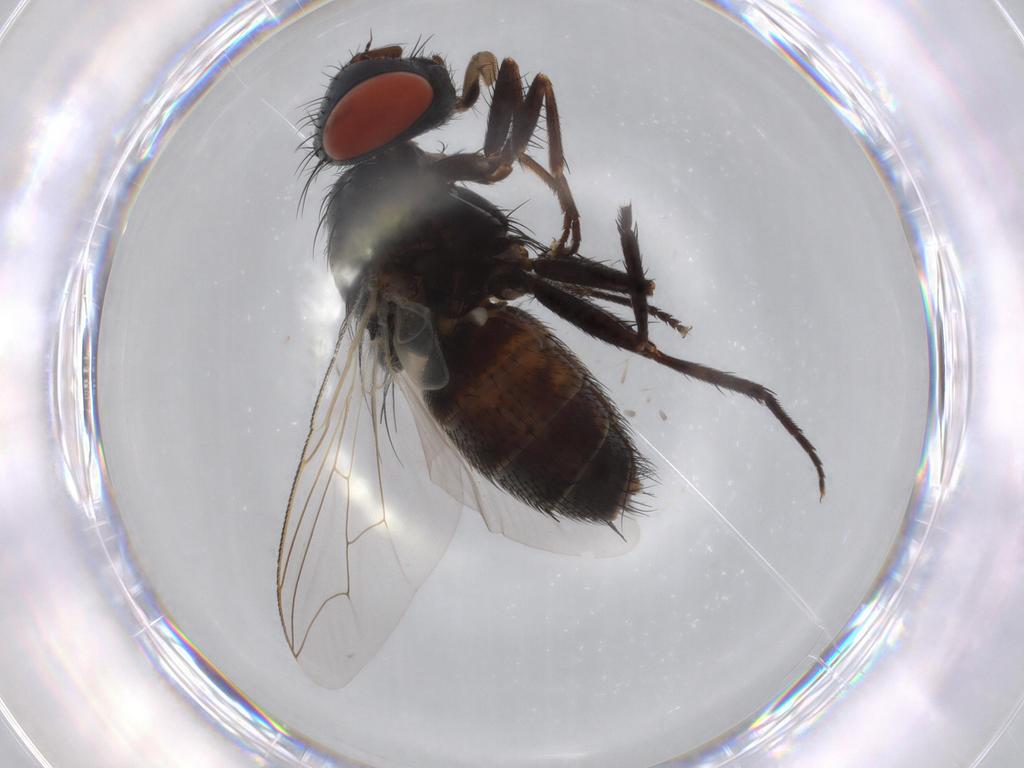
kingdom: Animalia
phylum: Arthropoda
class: Insecta
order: Diptera
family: Sarcophagidae
